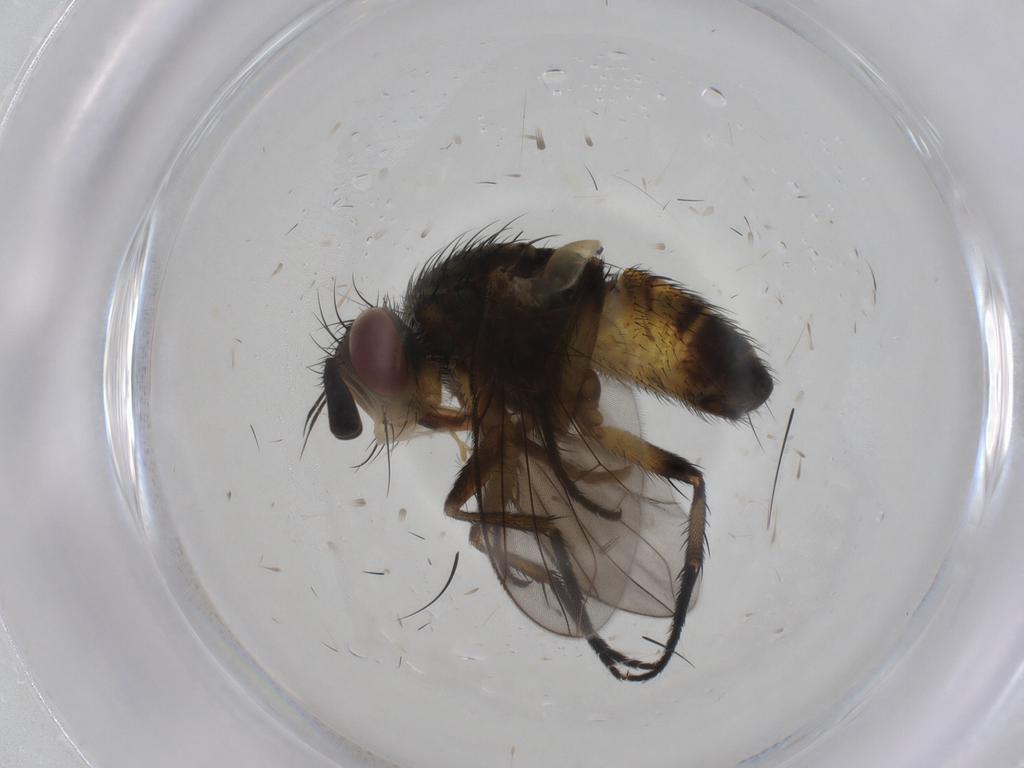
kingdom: Animalia
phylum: Arthropoda
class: Insecta
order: Diptera
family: Tachinidae
